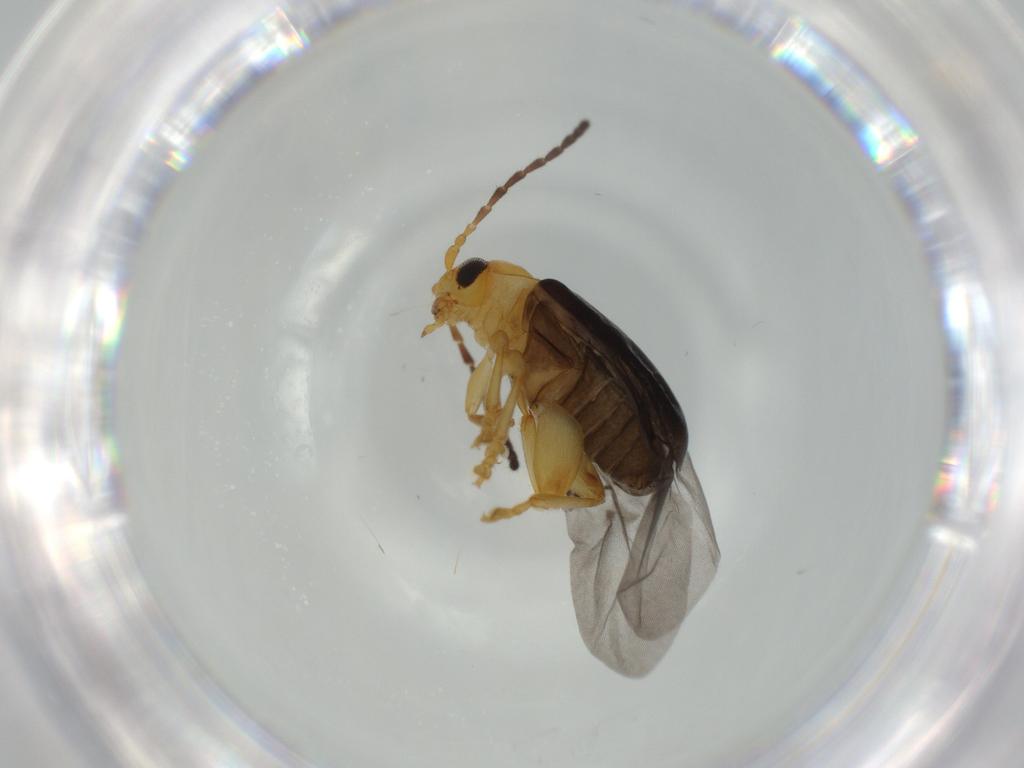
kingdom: Animalia
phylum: Arthropoda
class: Insecta
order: Coleoptera
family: Chrysomelidae
